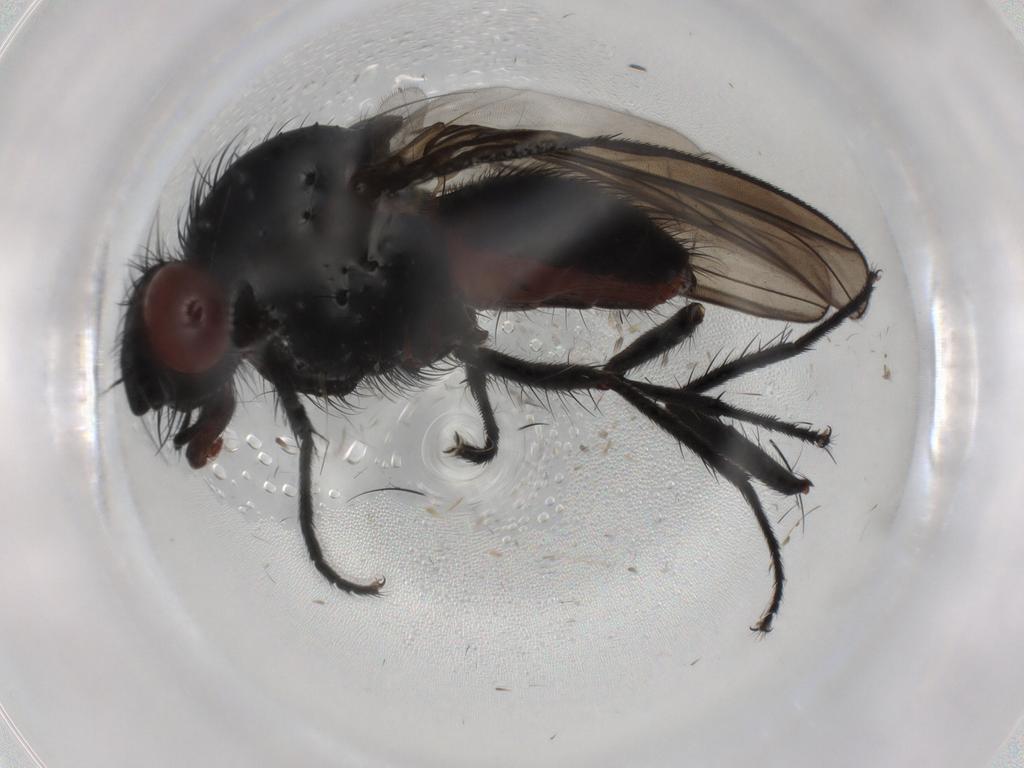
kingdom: Animalia
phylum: Arthropoda
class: Insecta
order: Diptera
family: Anthomyiidae
